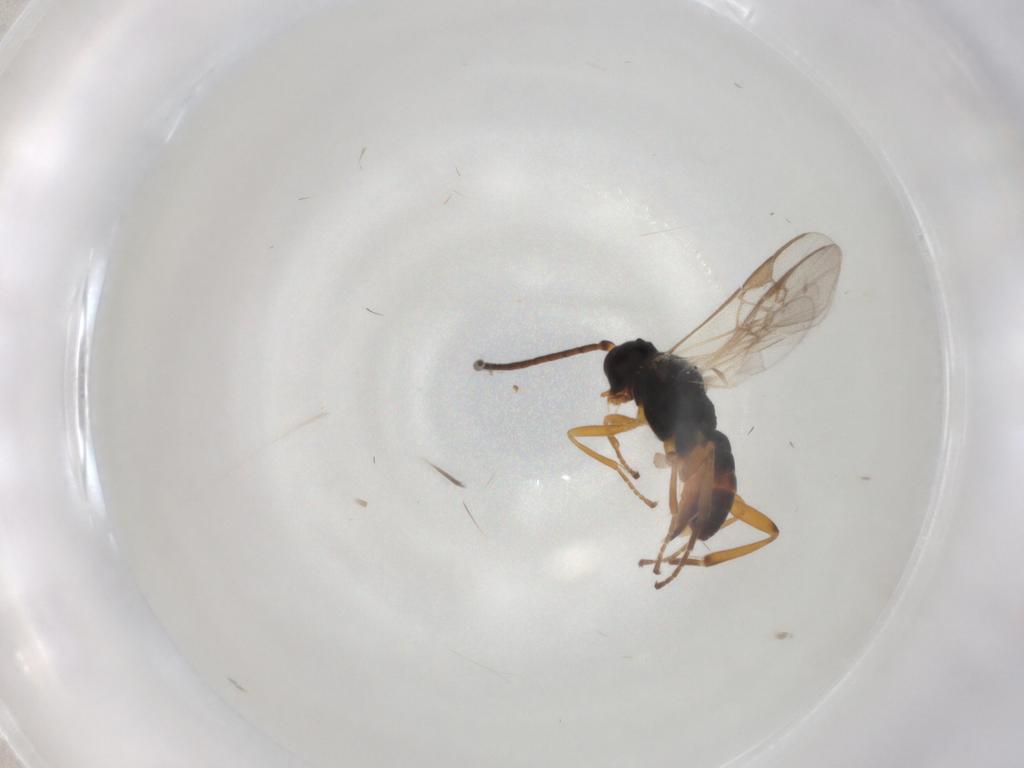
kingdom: Animalia
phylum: Arthropoda
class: Insecta
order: Hymenoptera
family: Braconidae
